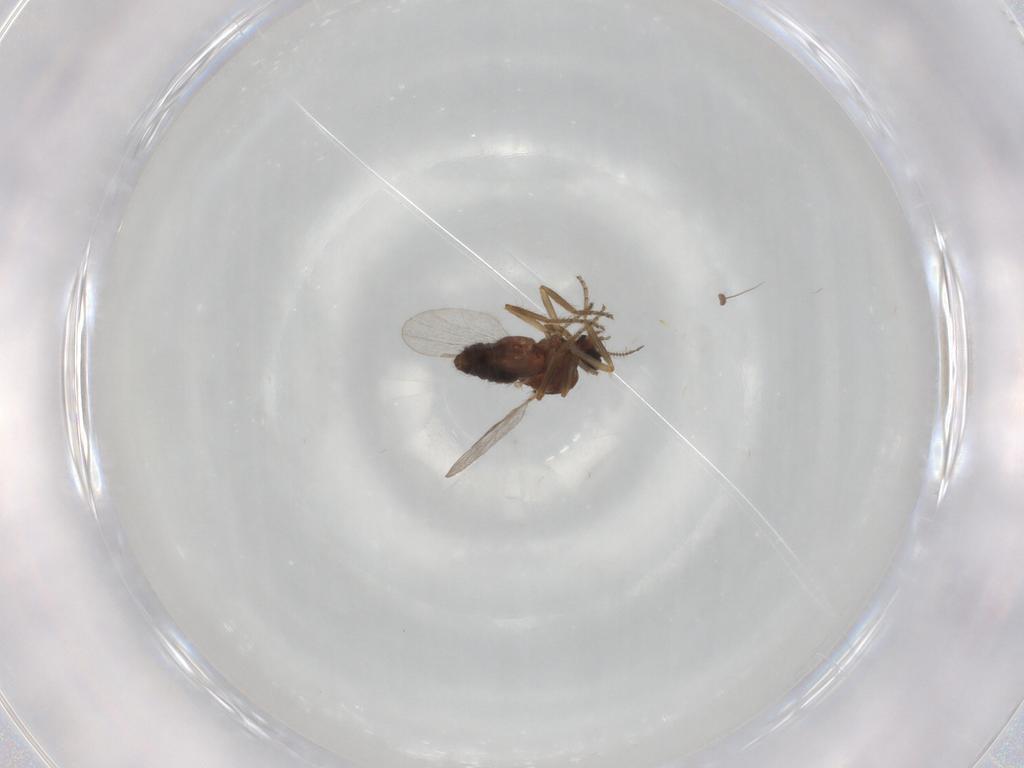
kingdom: Animalia
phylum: Arthropoda
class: Insecta
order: Diptera
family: Ceratopogonidae
